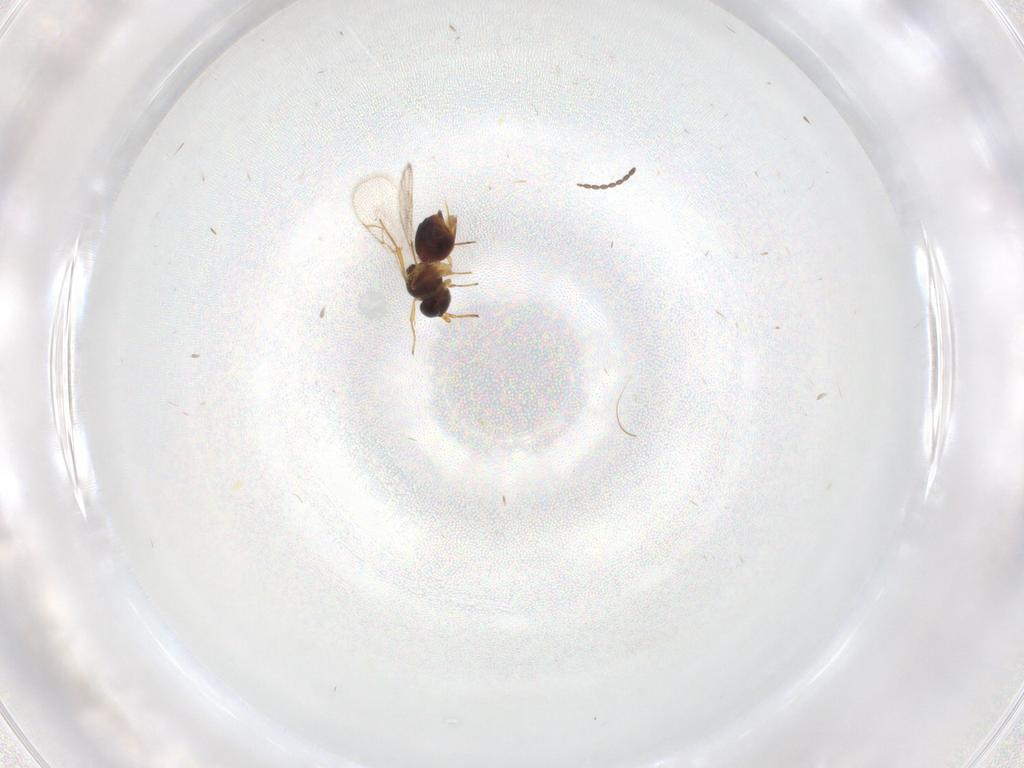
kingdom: Animalia
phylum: Arthropoda
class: Insecta
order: Hymenoptera
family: Figitidae
